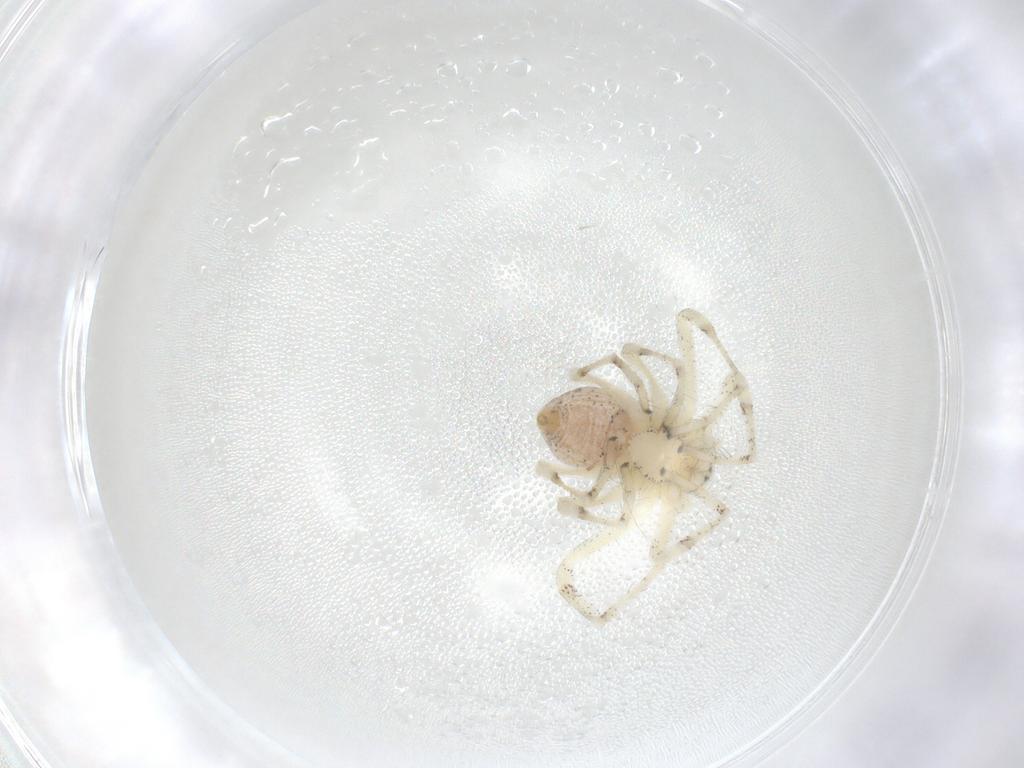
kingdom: Animalia
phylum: Arthropoda
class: Arachnida
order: Araneae
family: Philodromidae
